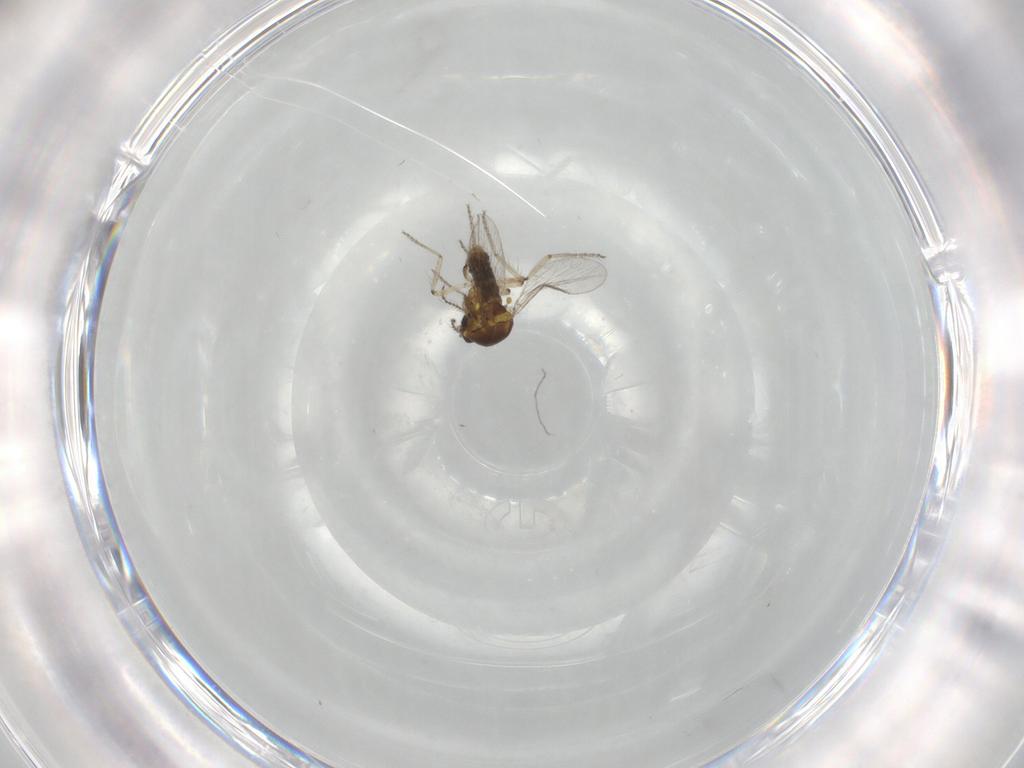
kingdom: Animalia
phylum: Arthropoda
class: Insecta
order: Diptera
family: Ceratopogonidae
